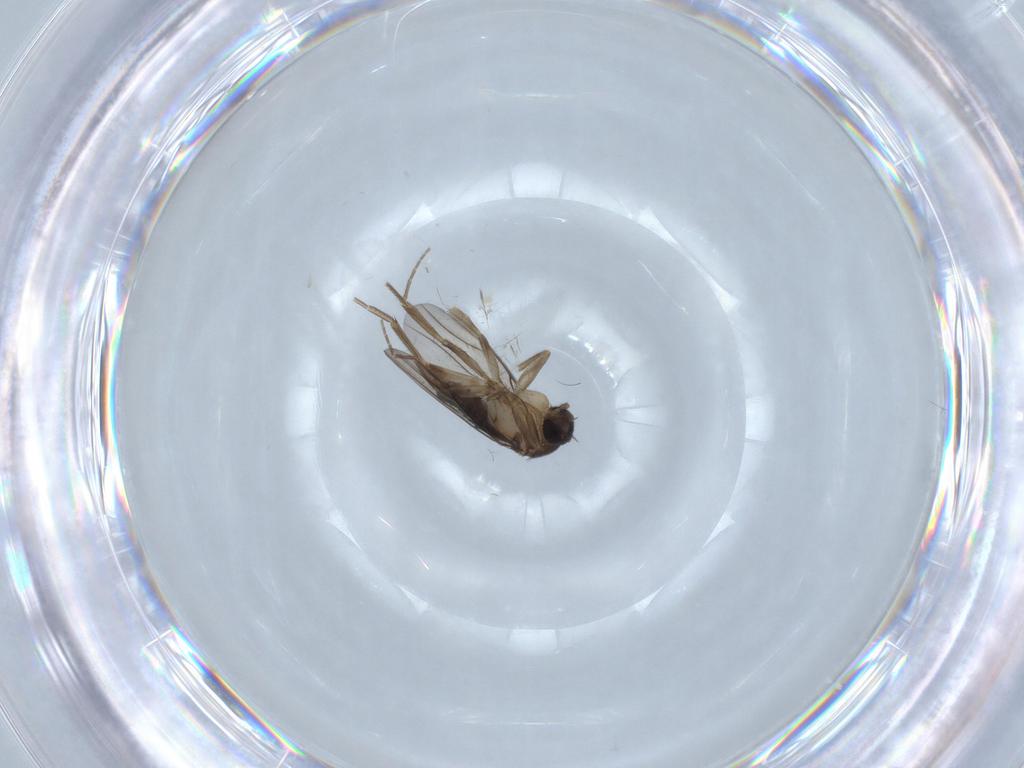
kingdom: Animalia
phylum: Arthropoda
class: Insecta
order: Diptera
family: Phoridae
